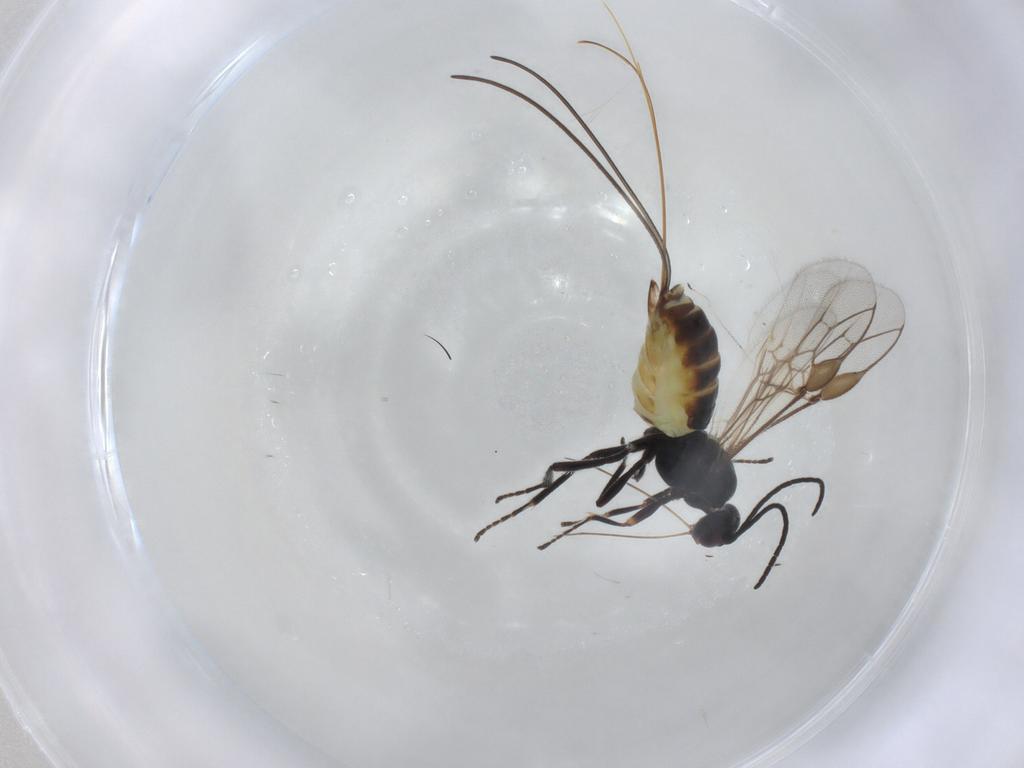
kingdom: Animalia
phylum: Arthropoda
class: Insecta
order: Hymenoptera
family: Braconidae
